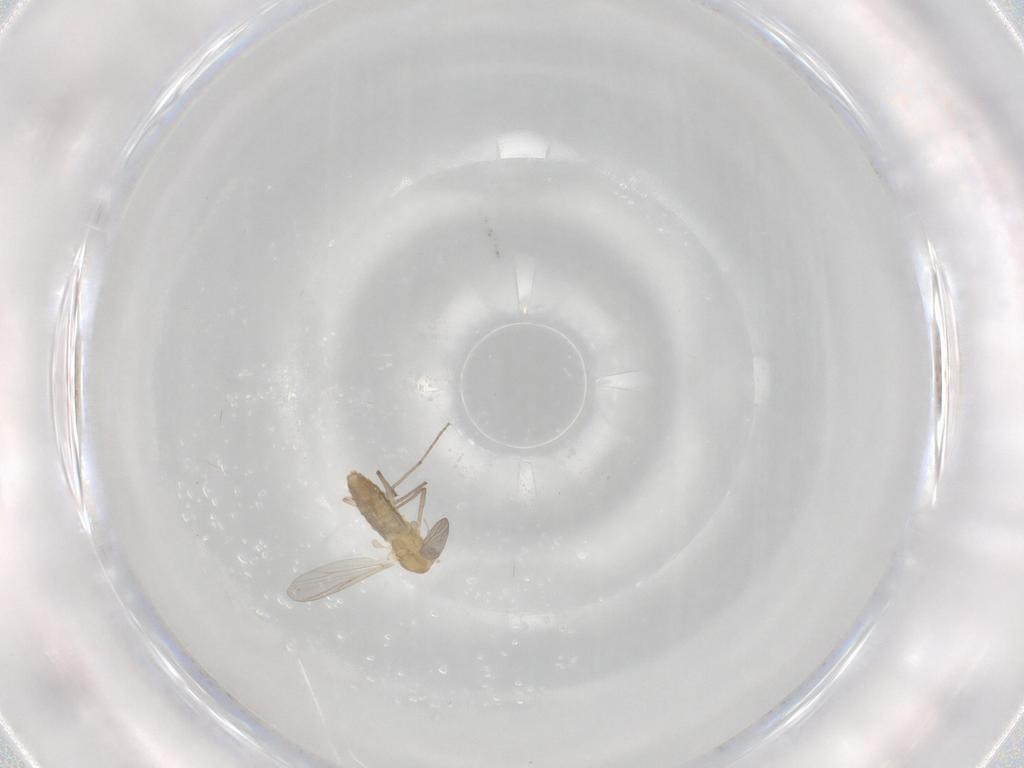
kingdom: Animalia
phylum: Arthropoda
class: Insecta
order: Diptera
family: Chironomidae
